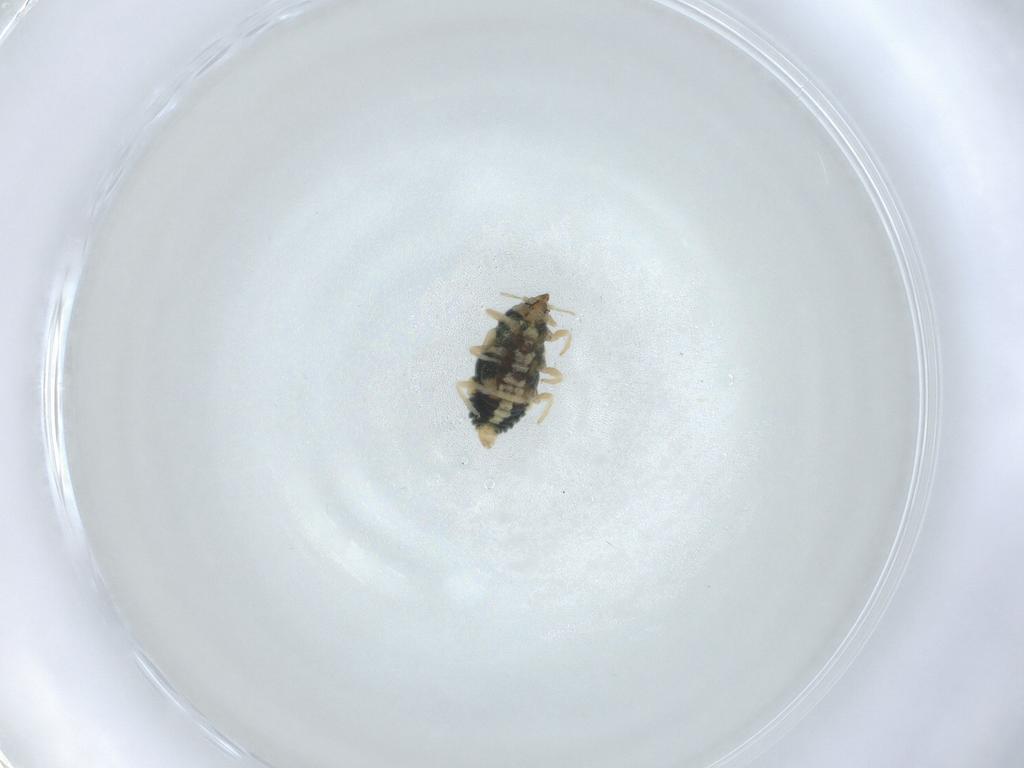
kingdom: Animalia
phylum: Arthropoda
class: Insecta
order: Neuroptera
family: Coniopterygidae
